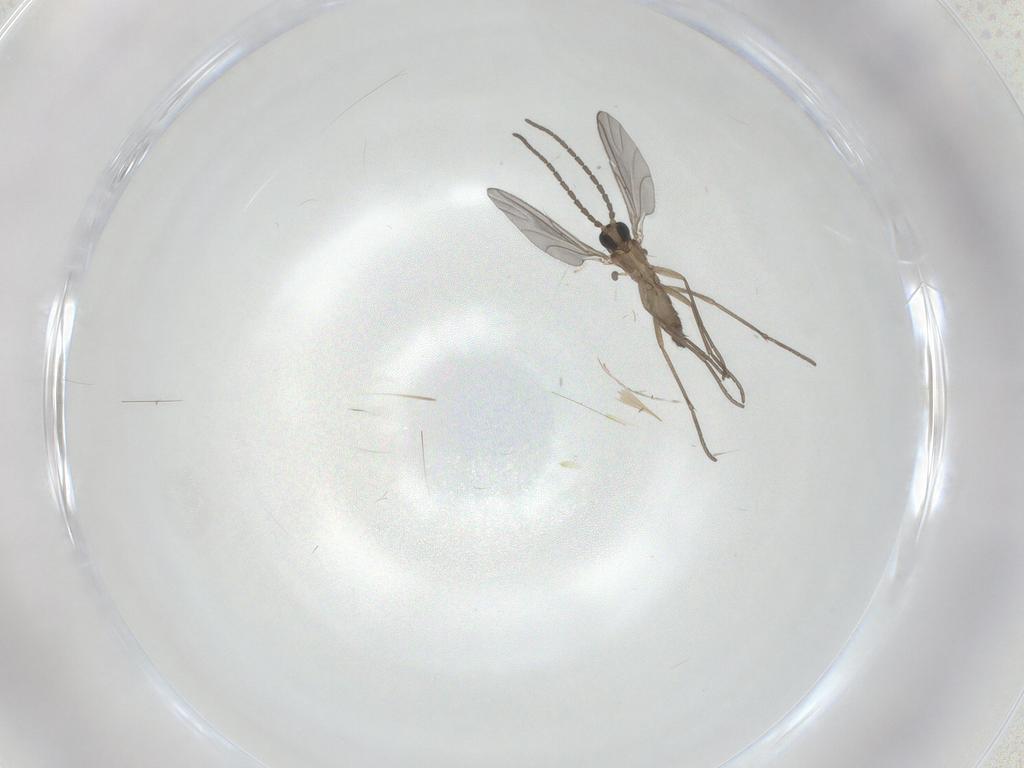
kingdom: Animalia
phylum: Arthropoda
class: Insecta
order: Diptera
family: Sciaridae
